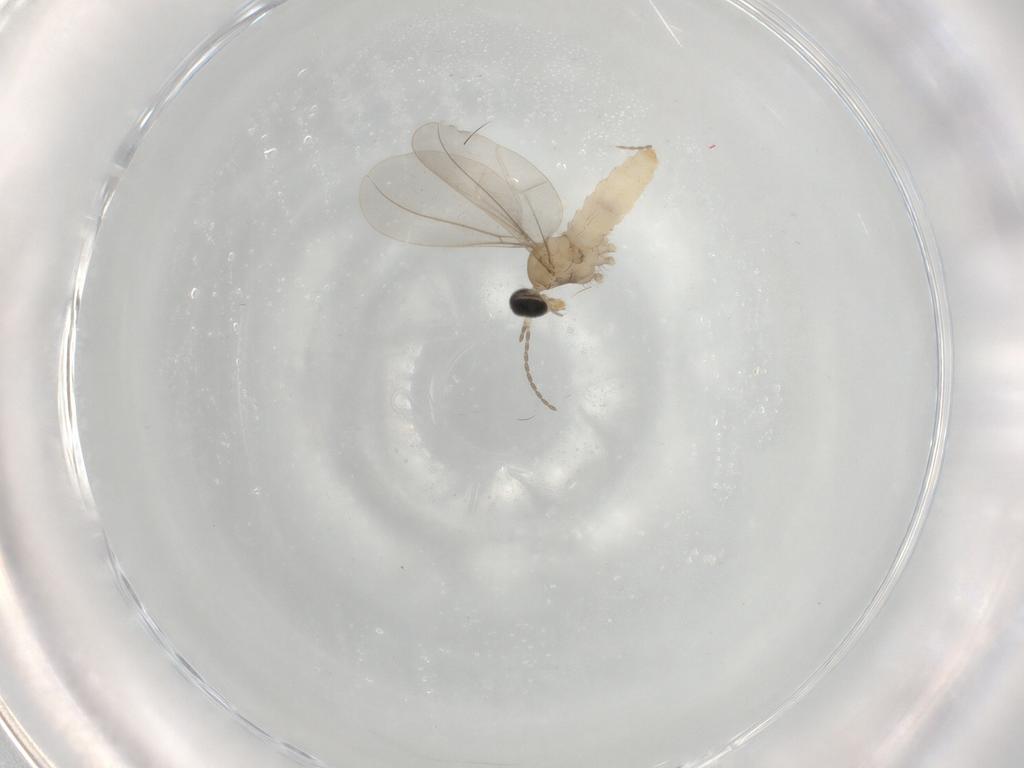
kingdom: Animalia
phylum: Arthropoda
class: Insecta
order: Diptera
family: Cecidomyiidae
